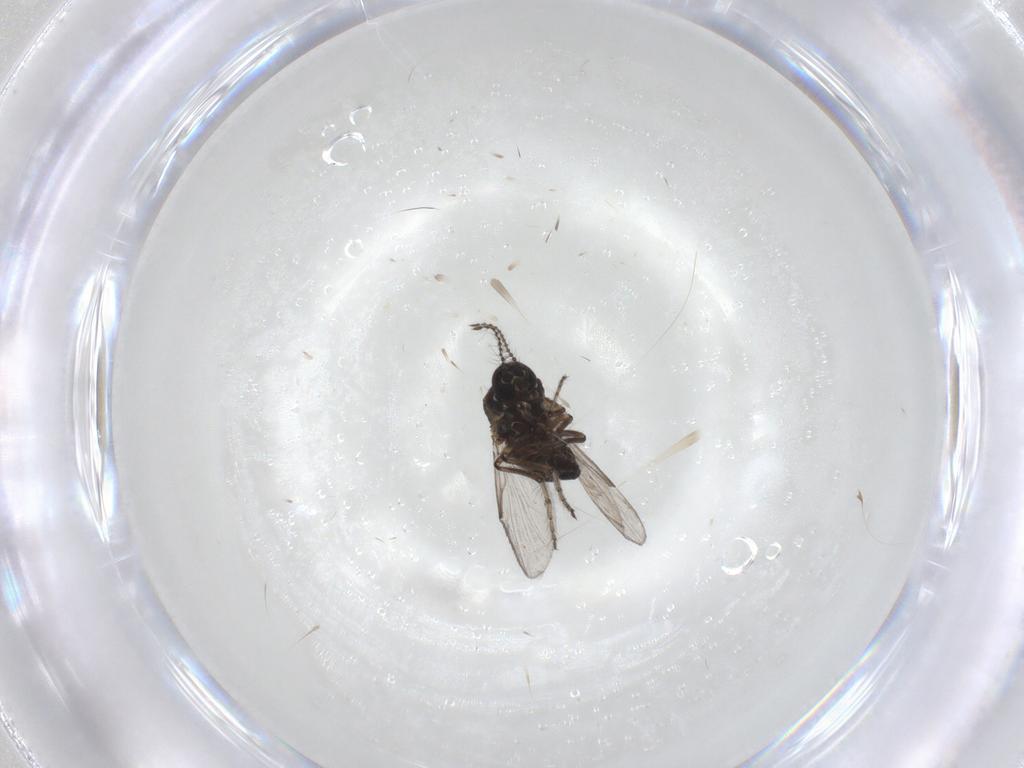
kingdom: Animalia
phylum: Arthropoda
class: Insecta
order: Diptera
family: Ceratopogonidae
